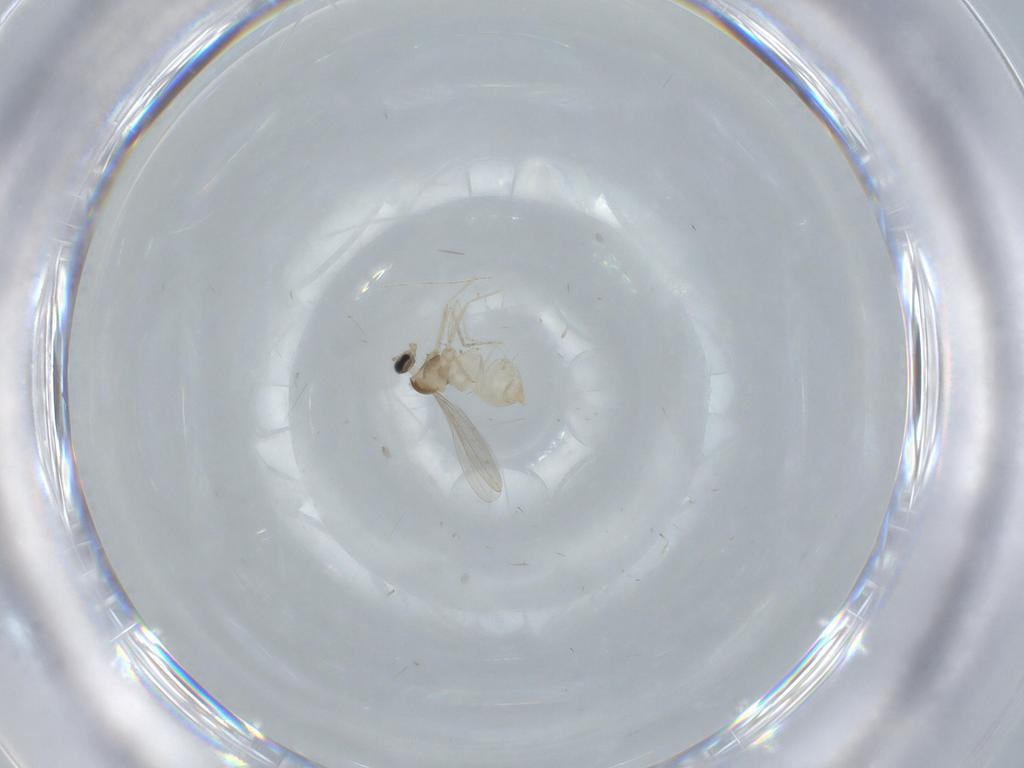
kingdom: Animalia
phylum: Arthropoda
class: Insecta
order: Diptera
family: Cecidomyiidae
